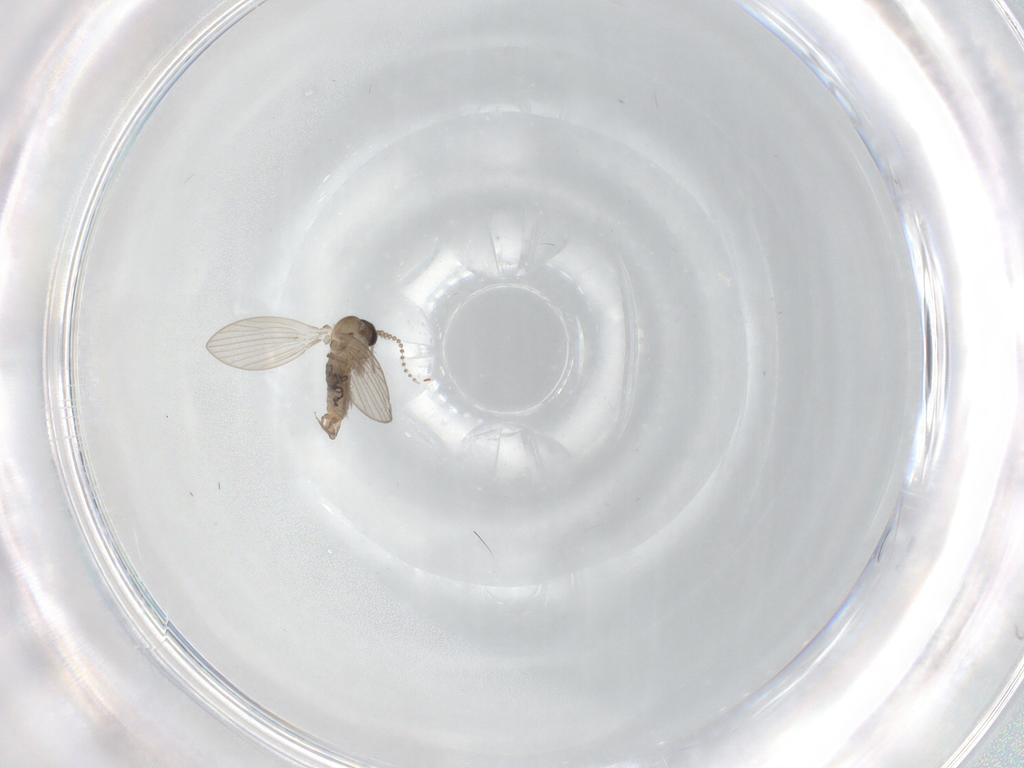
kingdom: Animalia
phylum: Arthropoda
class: Insecta
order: Diptera
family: Psychodidae
